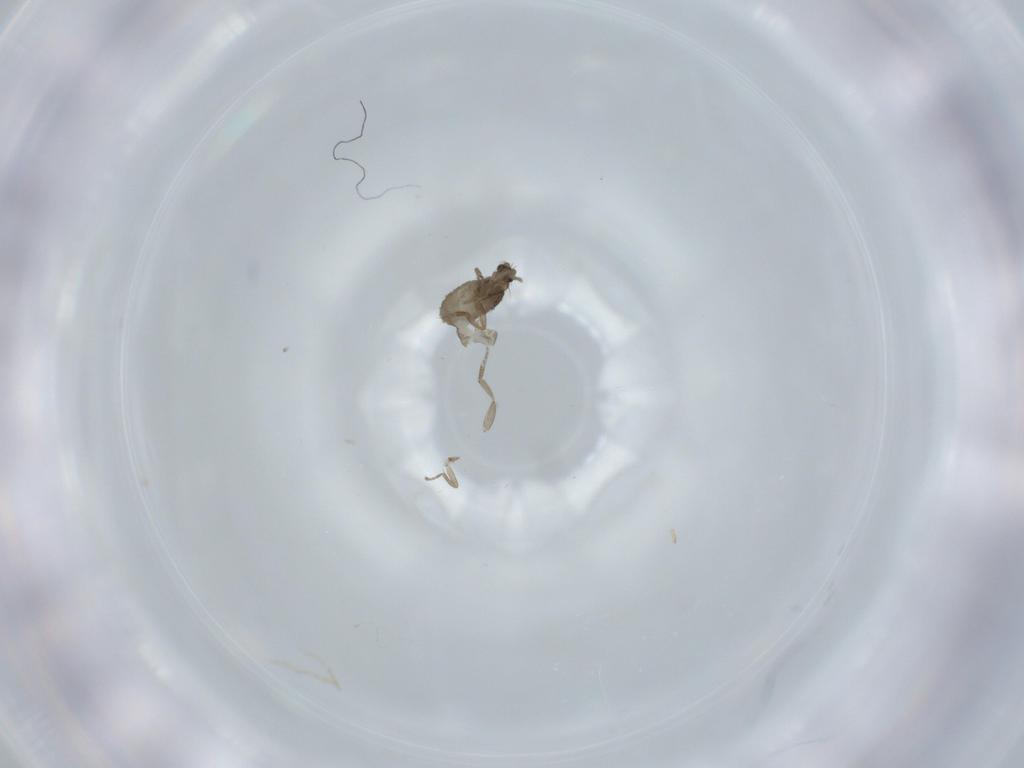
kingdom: Animalia
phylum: Arthropoda
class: Insecta
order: Diptera
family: Phoridae
